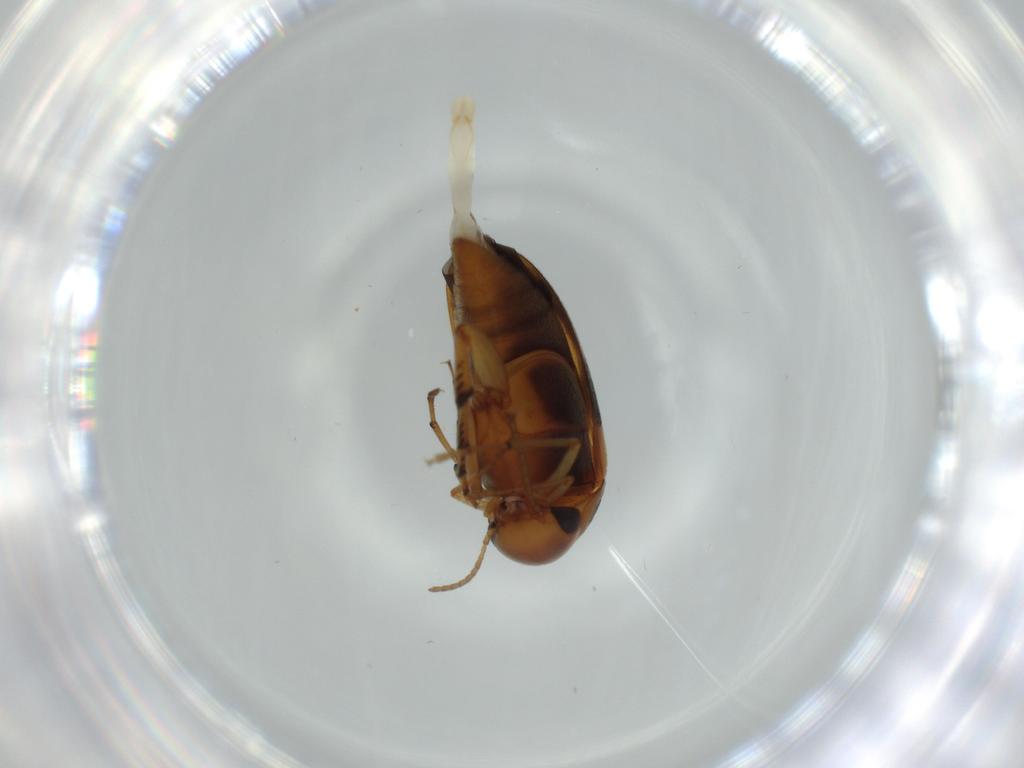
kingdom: Animalia
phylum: Arthropoda
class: Insecta
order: Coleoptera
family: Mordellidae
